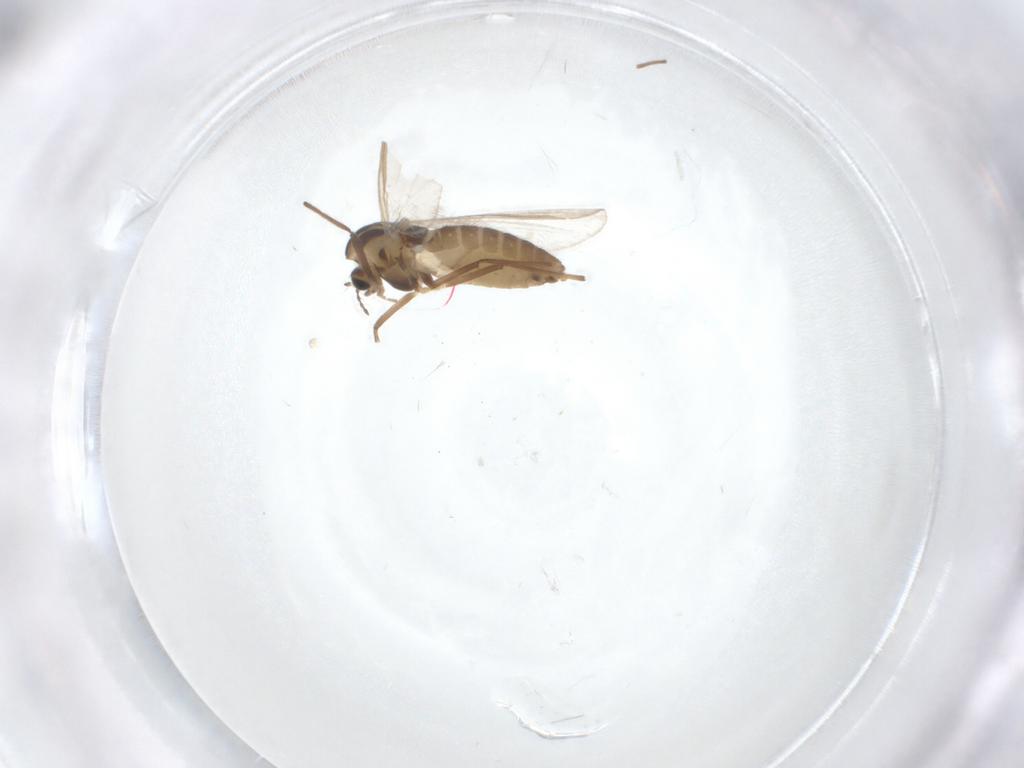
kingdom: Animalia
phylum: Arthropoda
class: Insecta
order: Diptera
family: Chironomidae
